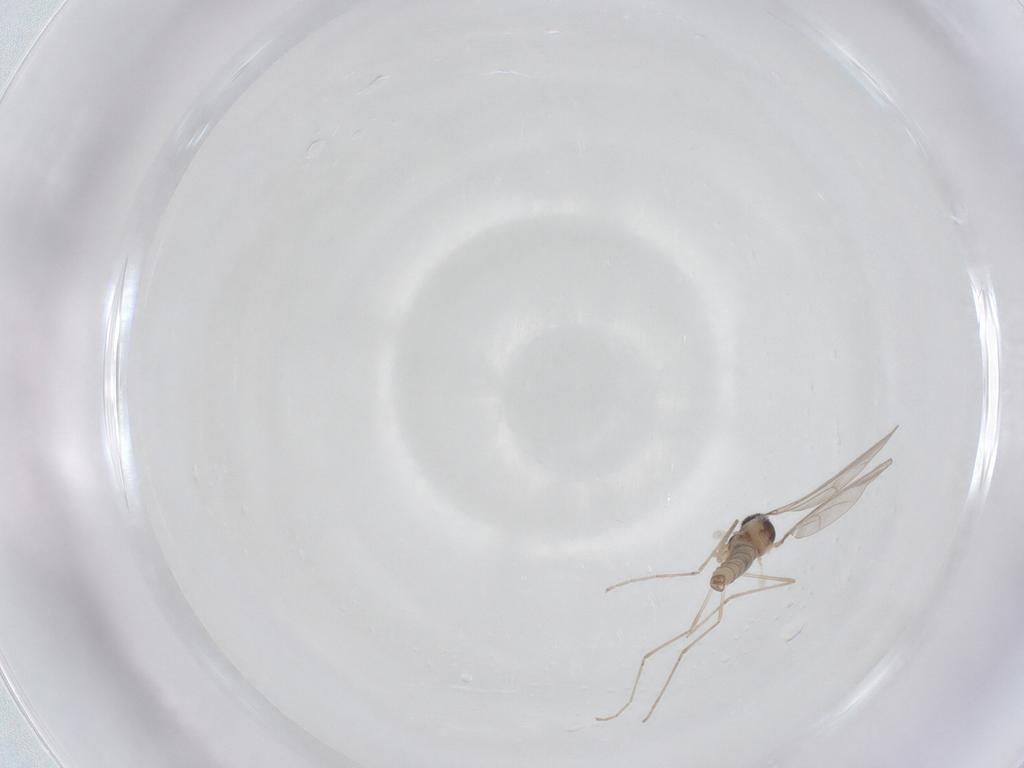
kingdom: Animalia
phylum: Arthropoda
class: Insecta
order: Diptera
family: Cecidomyiidae
